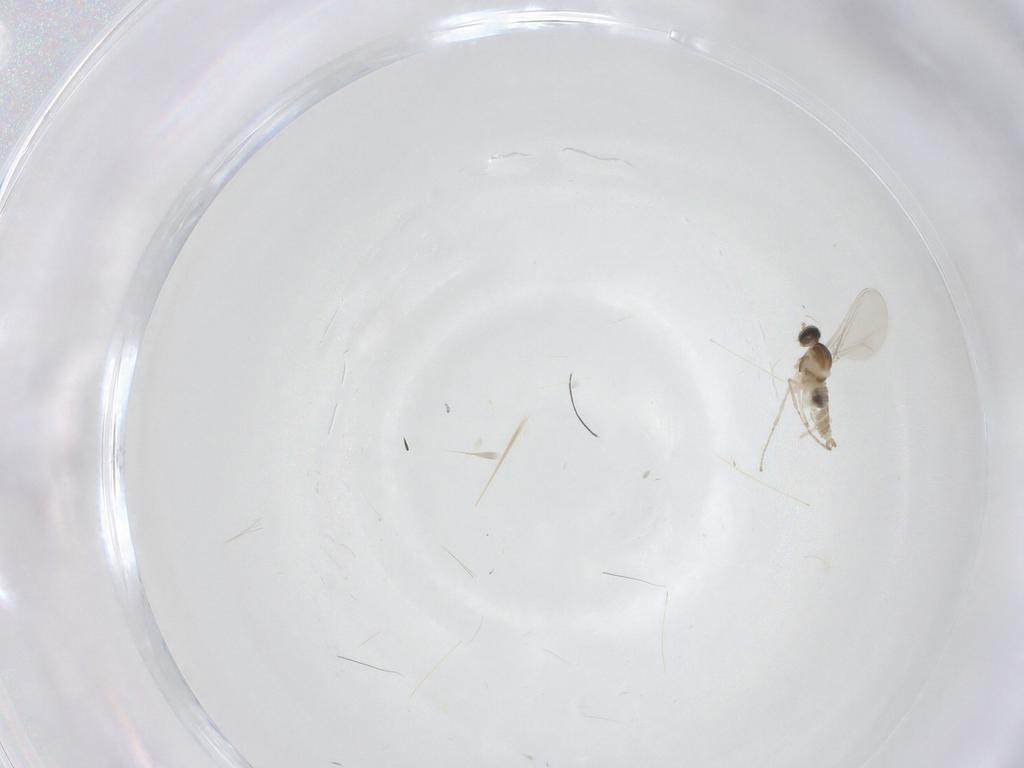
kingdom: Animalia
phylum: Arthropoda
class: Insecta
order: Diptera
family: Cecidomyiidae
